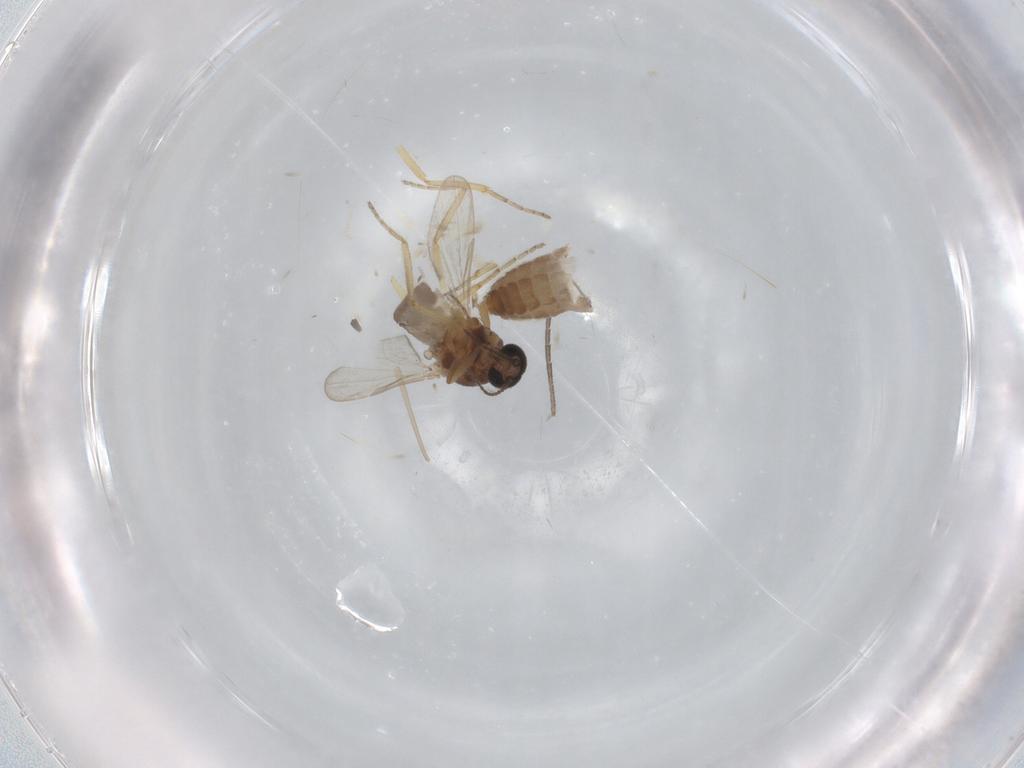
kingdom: Animalia
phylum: Arthropoda
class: Insecta
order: Diptera
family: Ceratopogonidae
